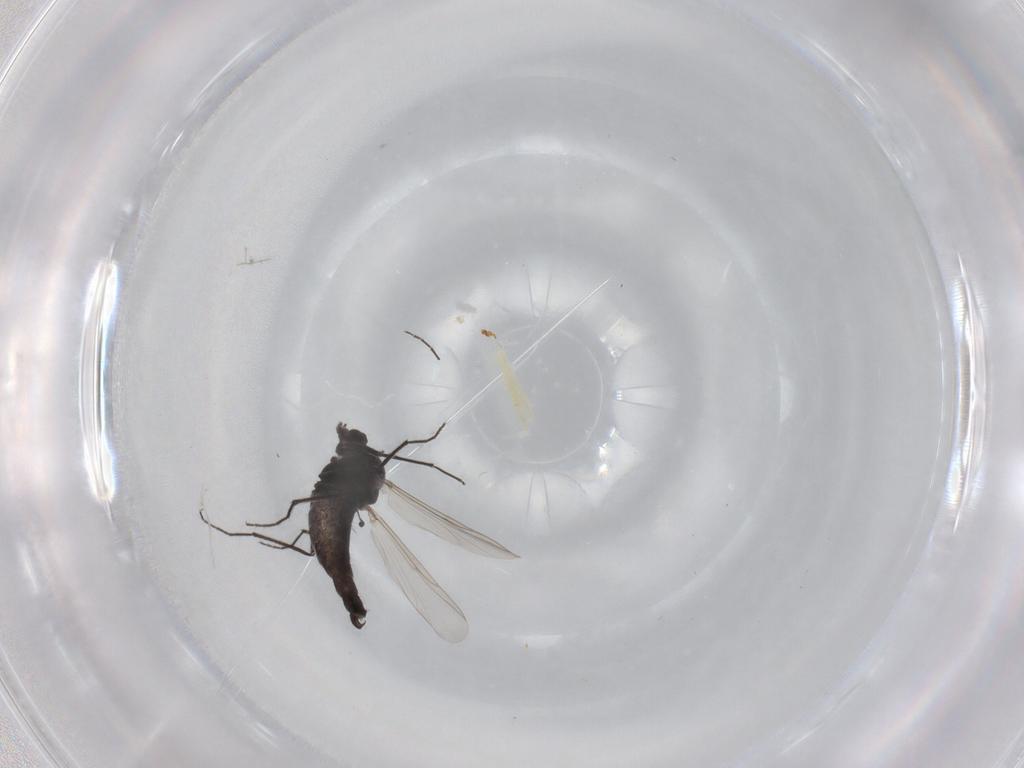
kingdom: Animalia
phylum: Arthropoda
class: Insecta
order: Diptera
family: Chironomidae
